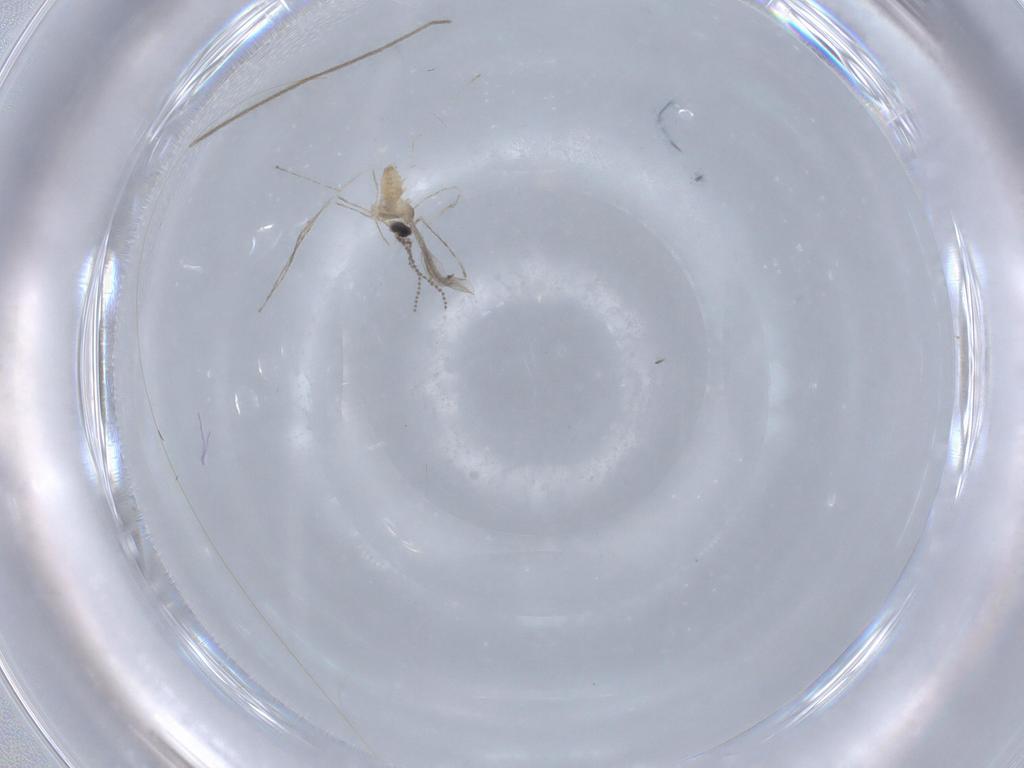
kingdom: Animalia
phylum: Arthropoda
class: Insecta
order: Diptera
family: Cecidomyiidae
